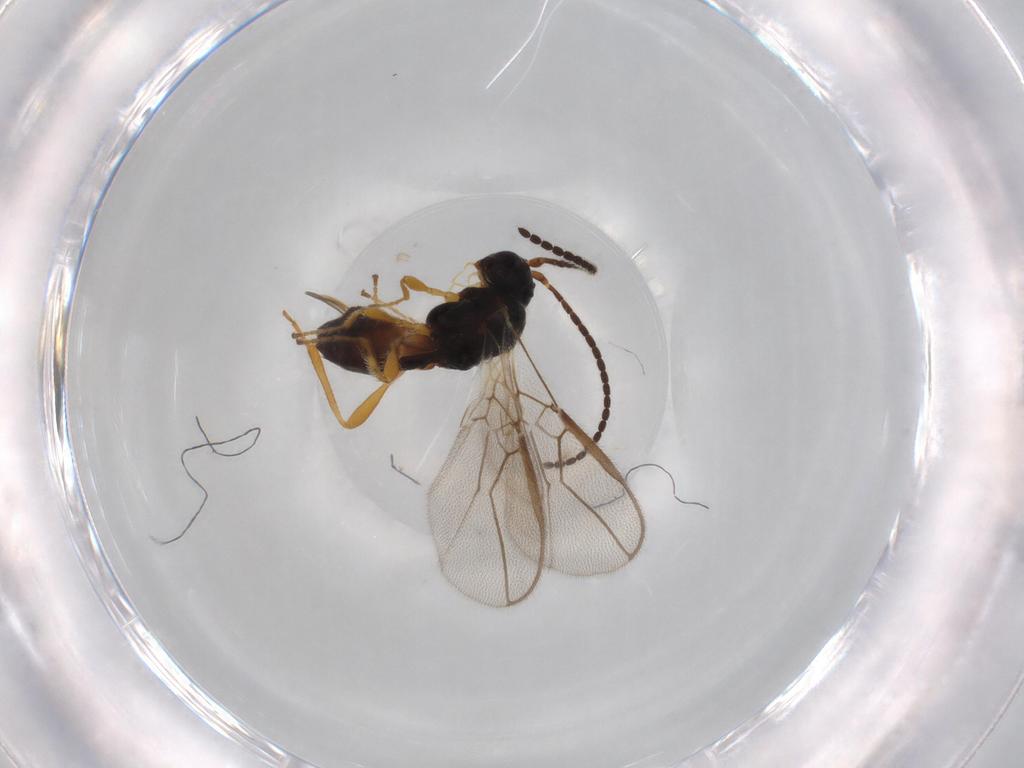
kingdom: Animalia
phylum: Arthropoda
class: Insecta
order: Hymenoptera
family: Braconidae
